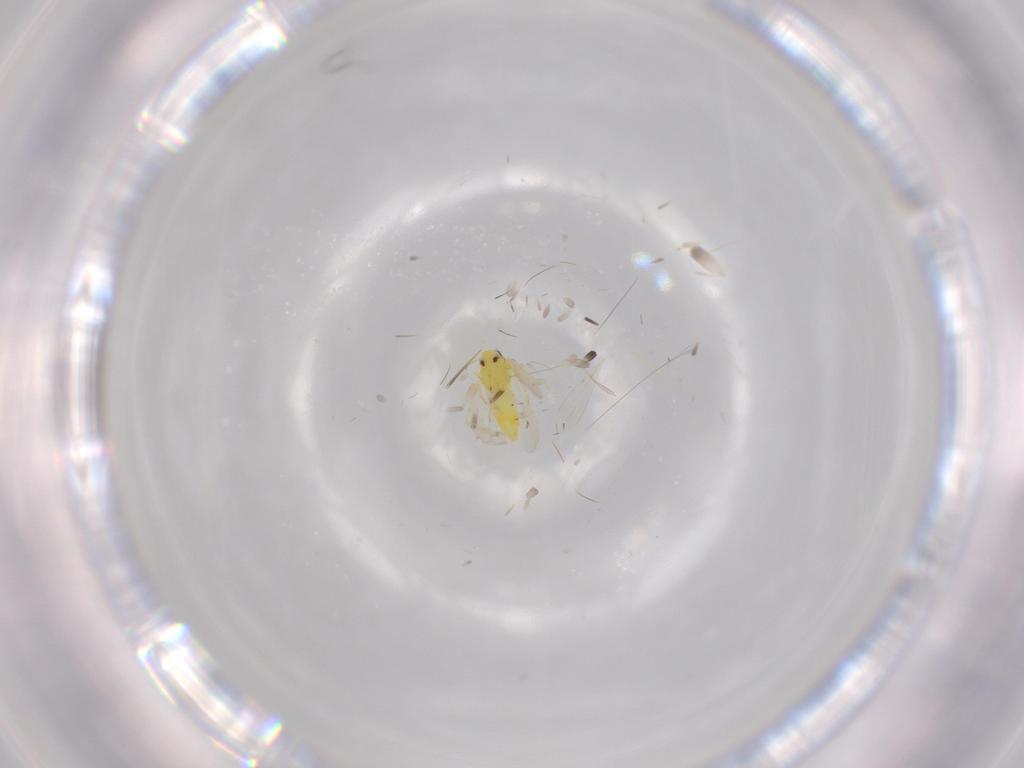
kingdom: Animalia
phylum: Arthropoda
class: Insecta
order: Hemiptera
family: Aleyrodidae
